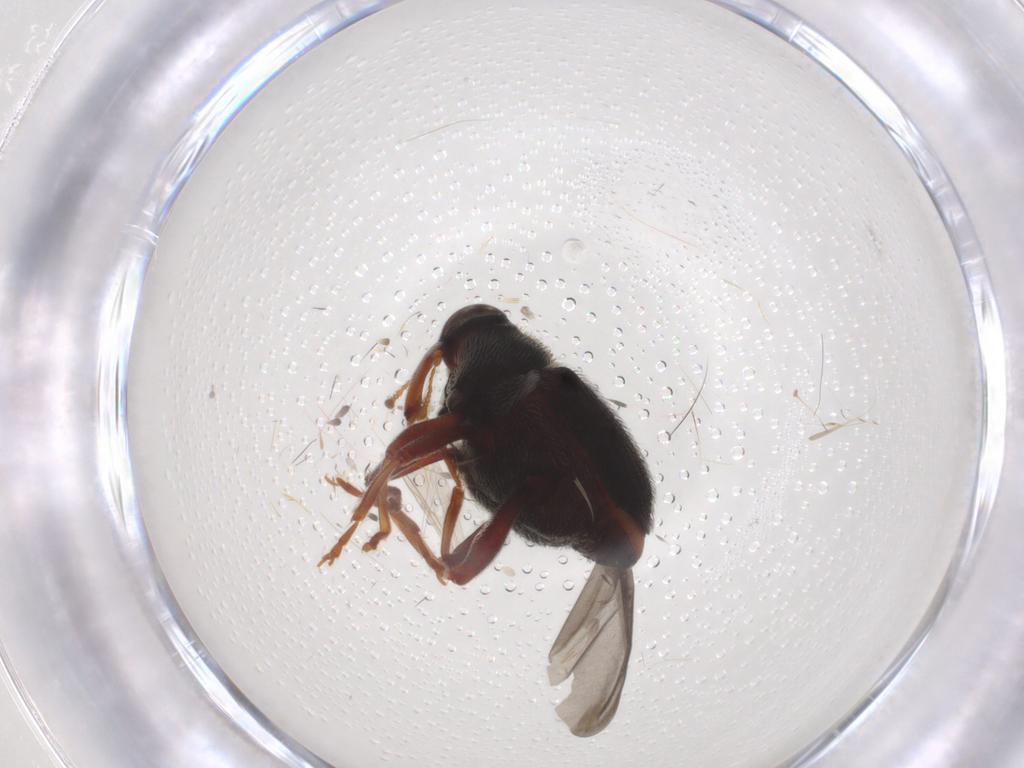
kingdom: Animalia
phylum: Arthropoda
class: Insecta
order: Coleoptera
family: Curculionidae
